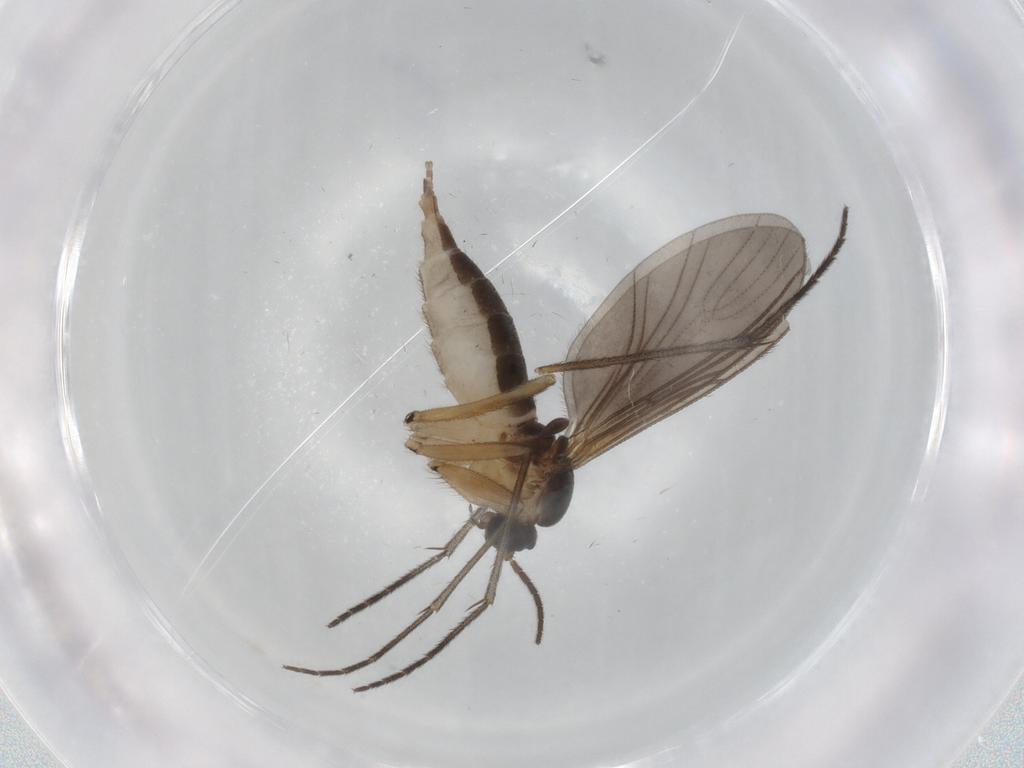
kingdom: Animalia
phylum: Arthropoda
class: Insecta
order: Diptera
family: Sciaridae
